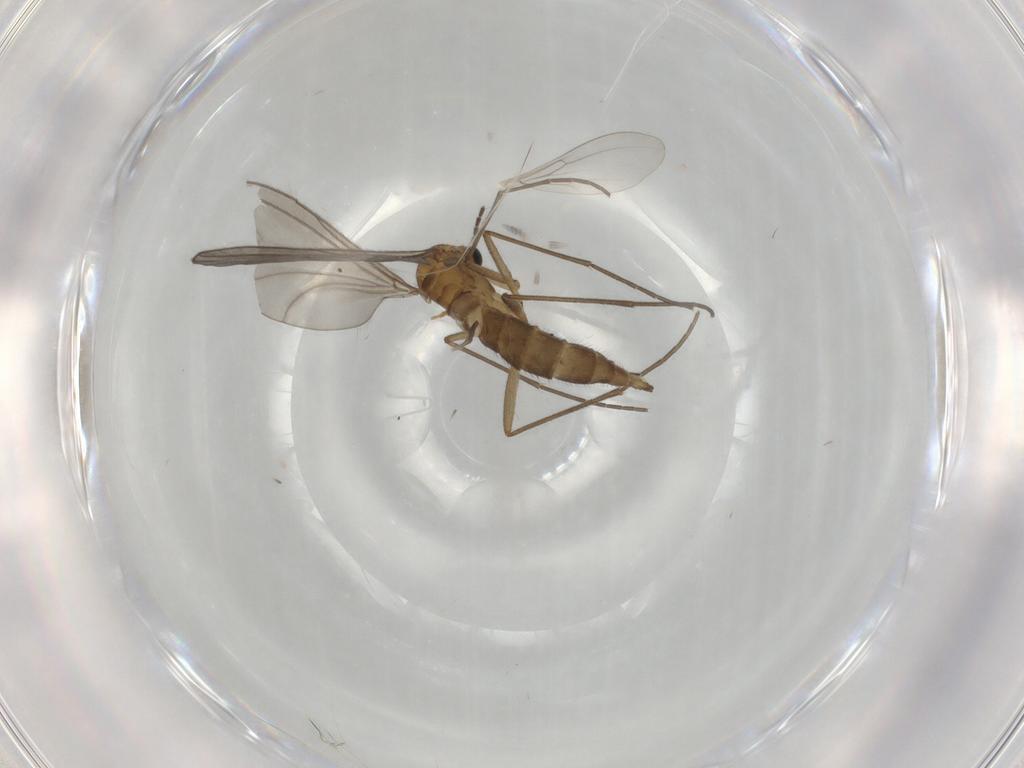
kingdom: Animalia
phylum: Arthropoda
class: Insecta
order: Diptera
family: Sciaridae
